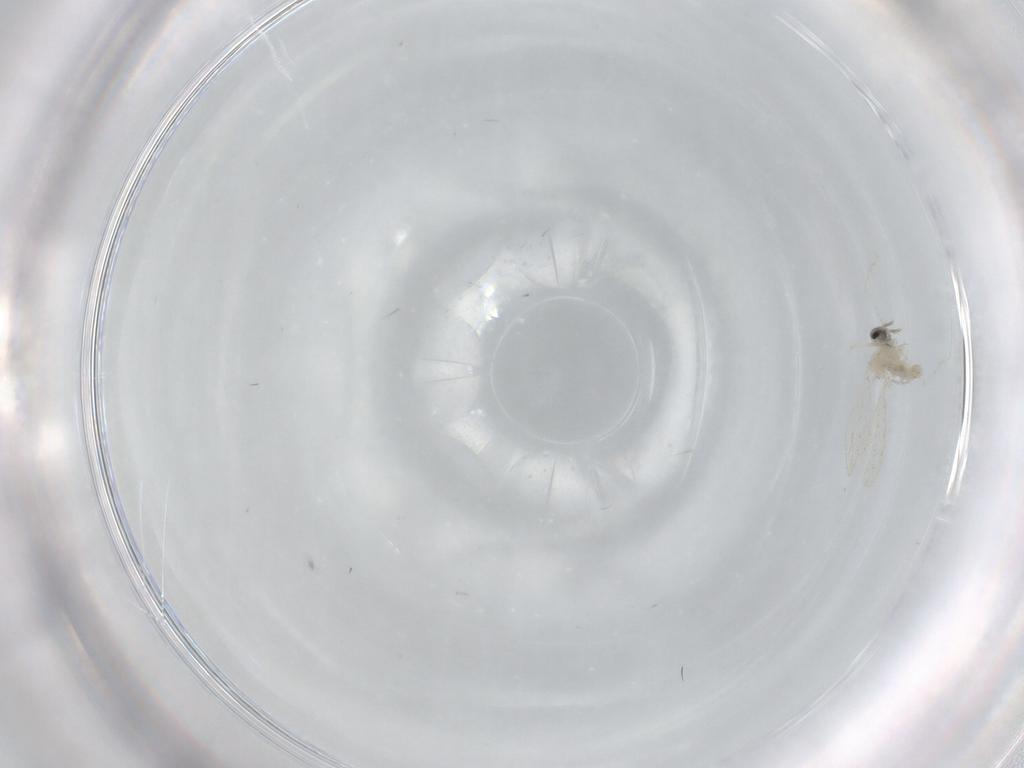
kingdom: Animalia
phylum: Arthropoda
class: Insecta
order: Diptera
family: Cecidomyiidae
